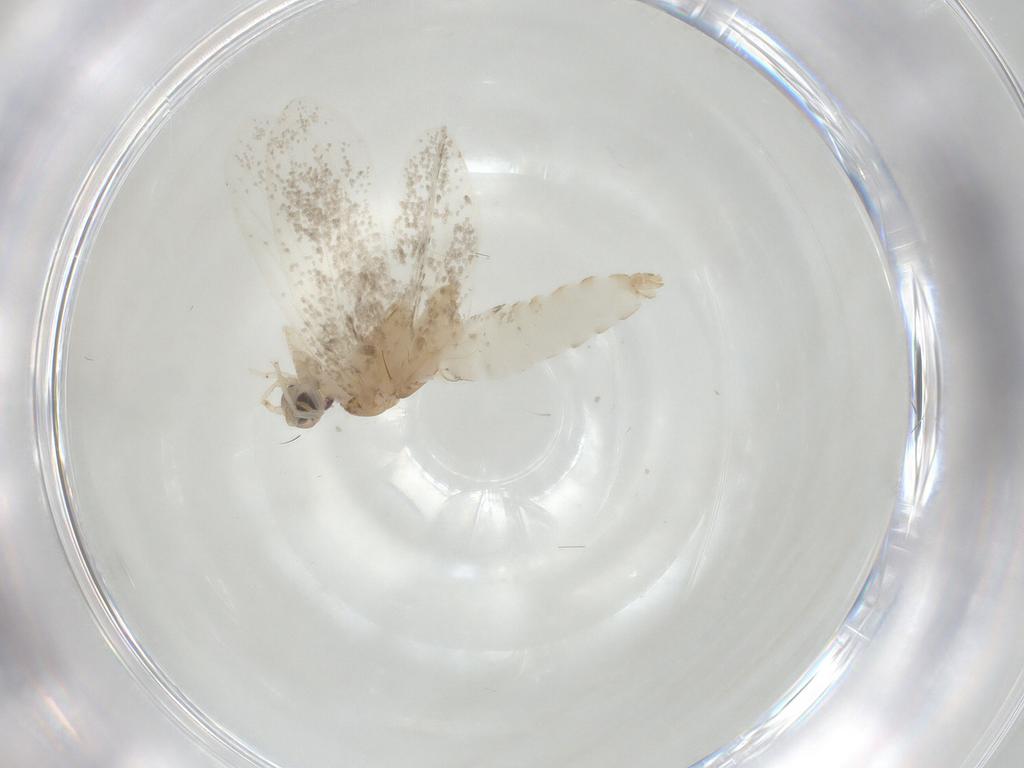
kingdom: Animalia
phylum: Arthropoda
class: Insecta
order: Lepidoptera
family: Psychidae
